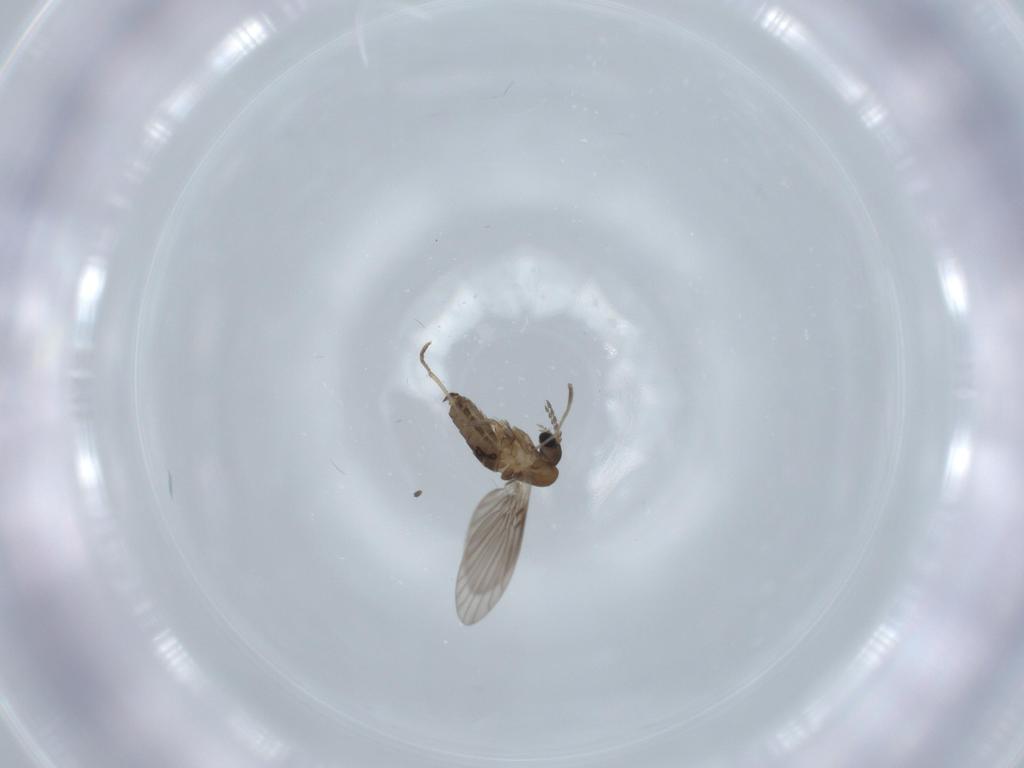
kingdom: Animalia
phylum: Arthropoda
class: Insecta
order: Diptera
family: Psychodidae
